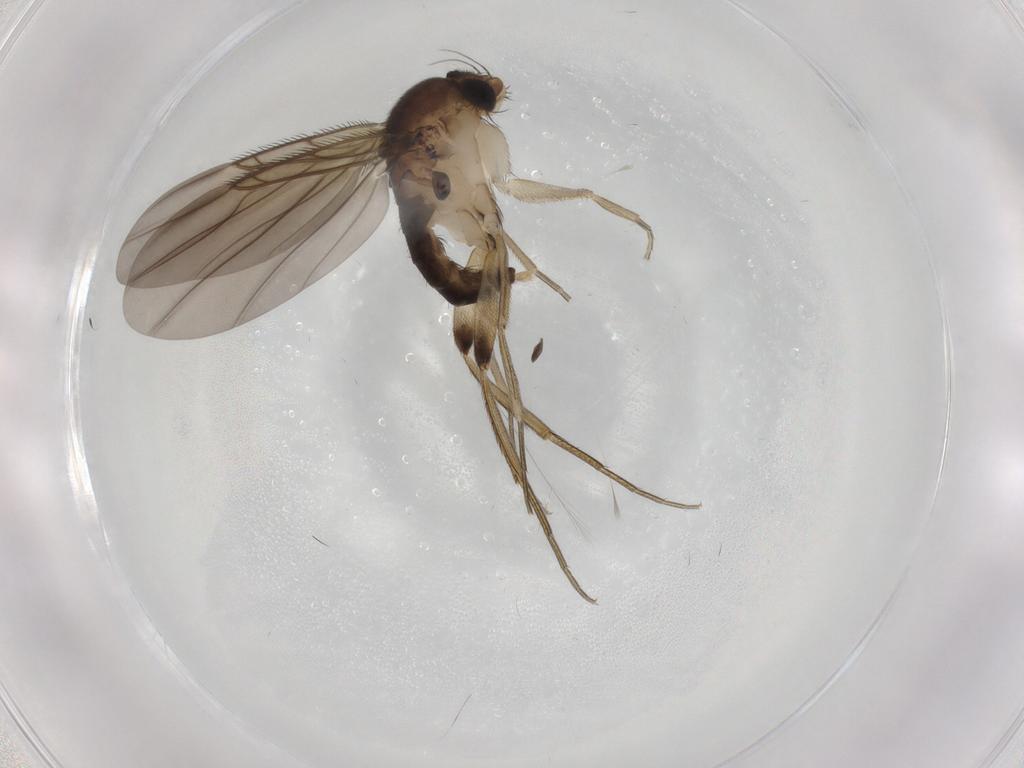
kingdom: Animalia
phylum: Arthropoda
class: Insecta
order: Diptera
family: Phoridae
